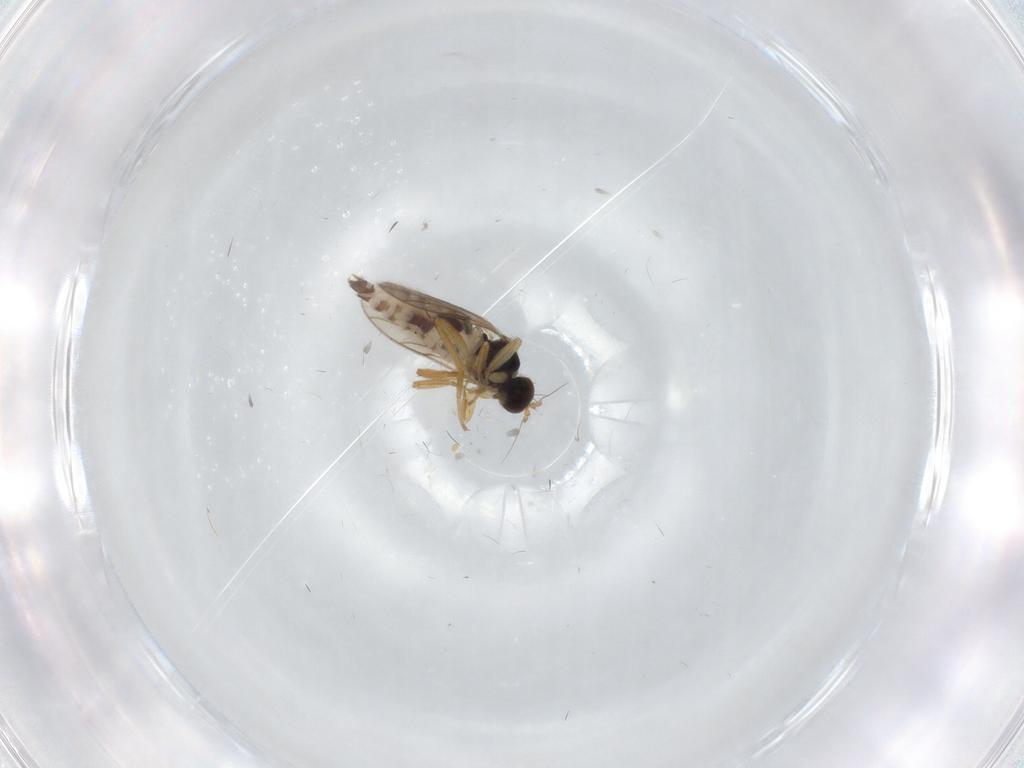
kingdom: Animalia
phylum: Arthropoda
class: Insecta
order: Diptera
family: Hybotidae
